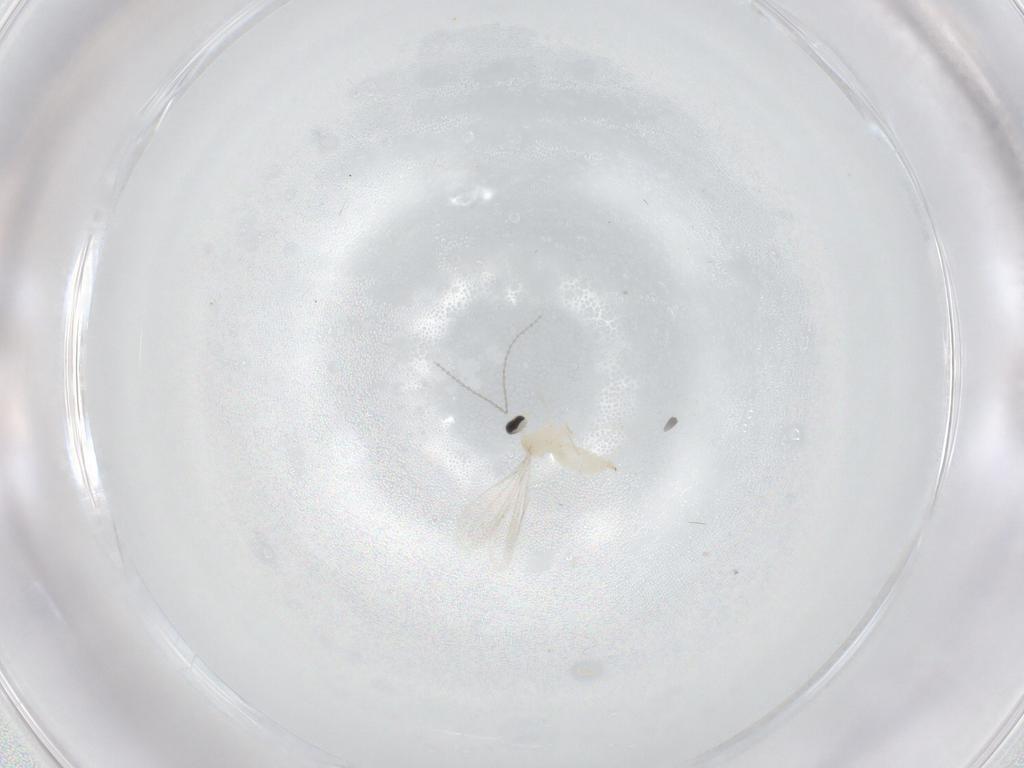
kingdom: Animalia
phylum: Arthropoda
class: Insecta
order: Diptera
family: Cecidomyiidae
